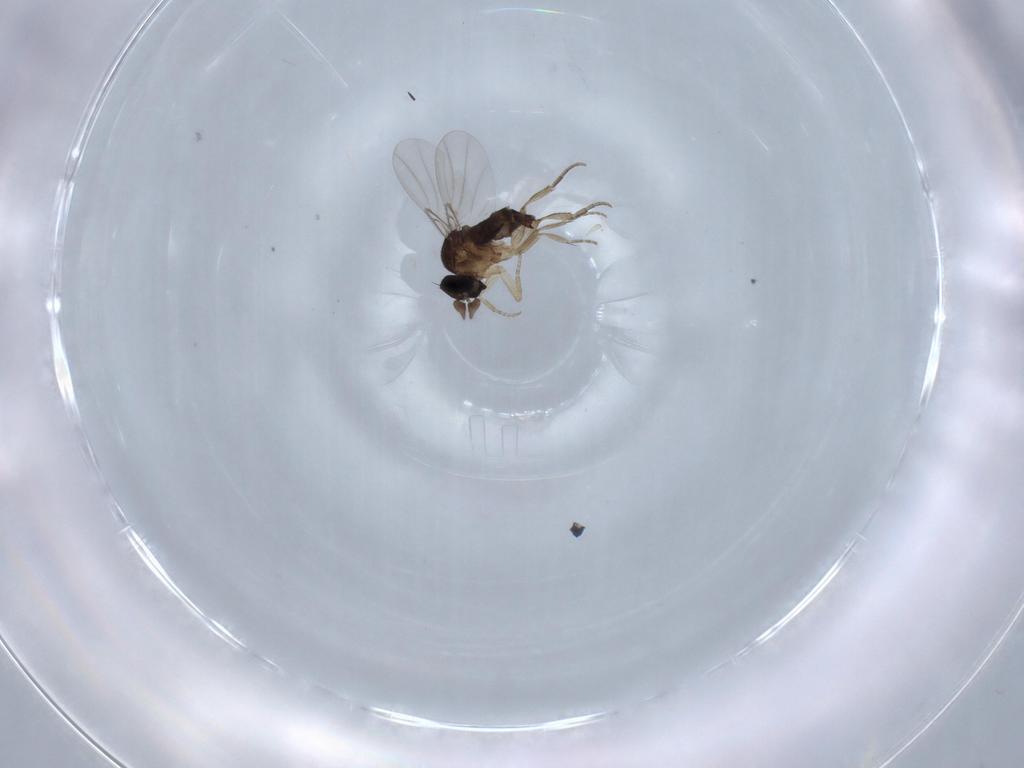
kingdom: Animalia
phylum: Arthropoda
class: Insecta
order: Diptera
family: Phoridae
